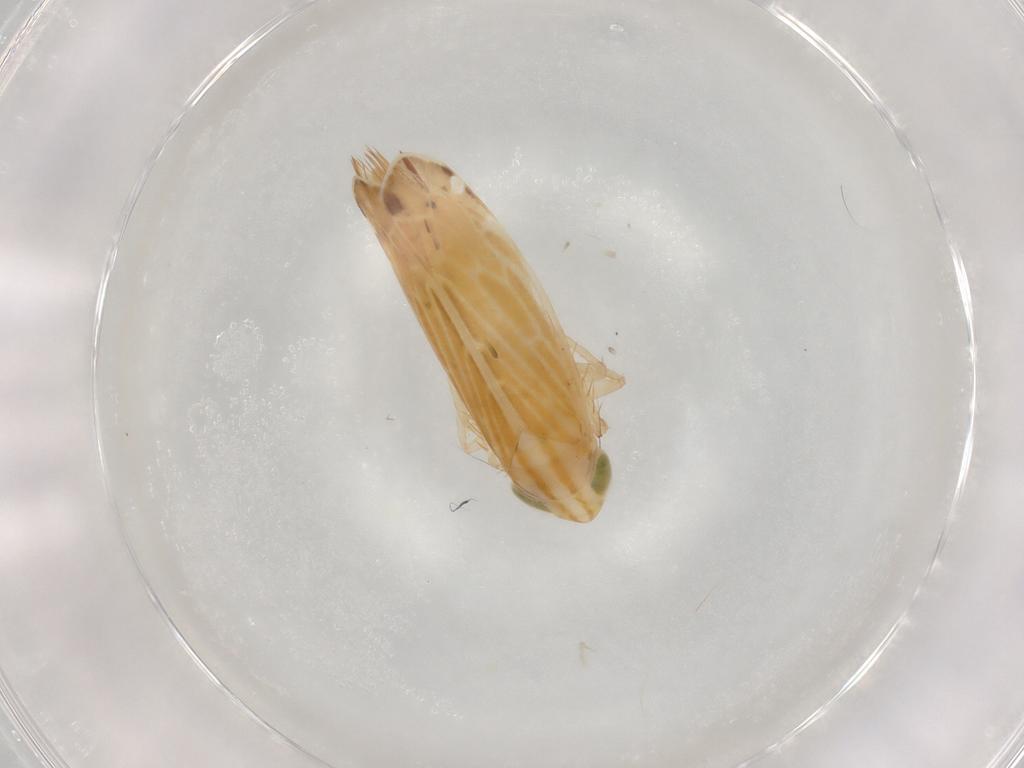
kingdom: Animalia
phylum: Arthropoda
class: Insecta
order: Hemiptera
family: Cicadellidae
